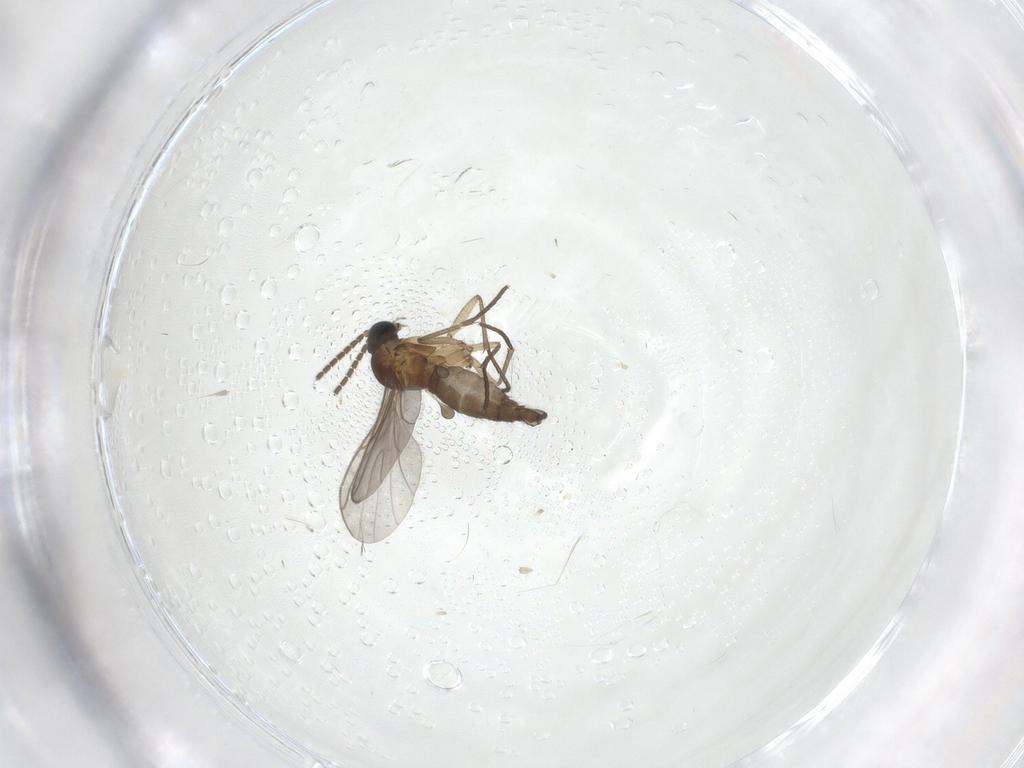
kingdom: Animalia
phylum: Arthropoda
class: Insecta
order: Diptera
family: Sciaridae
